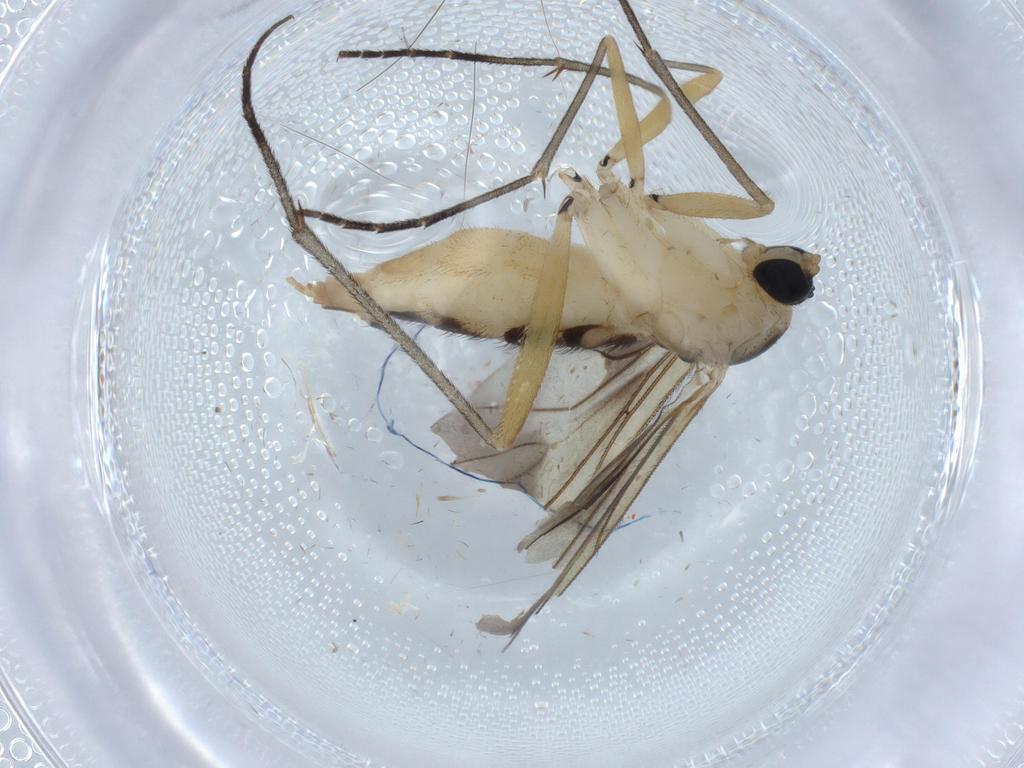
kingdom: Animalia
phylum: Arthropoda
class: Insecta
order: Diptera
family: Sciaridae
